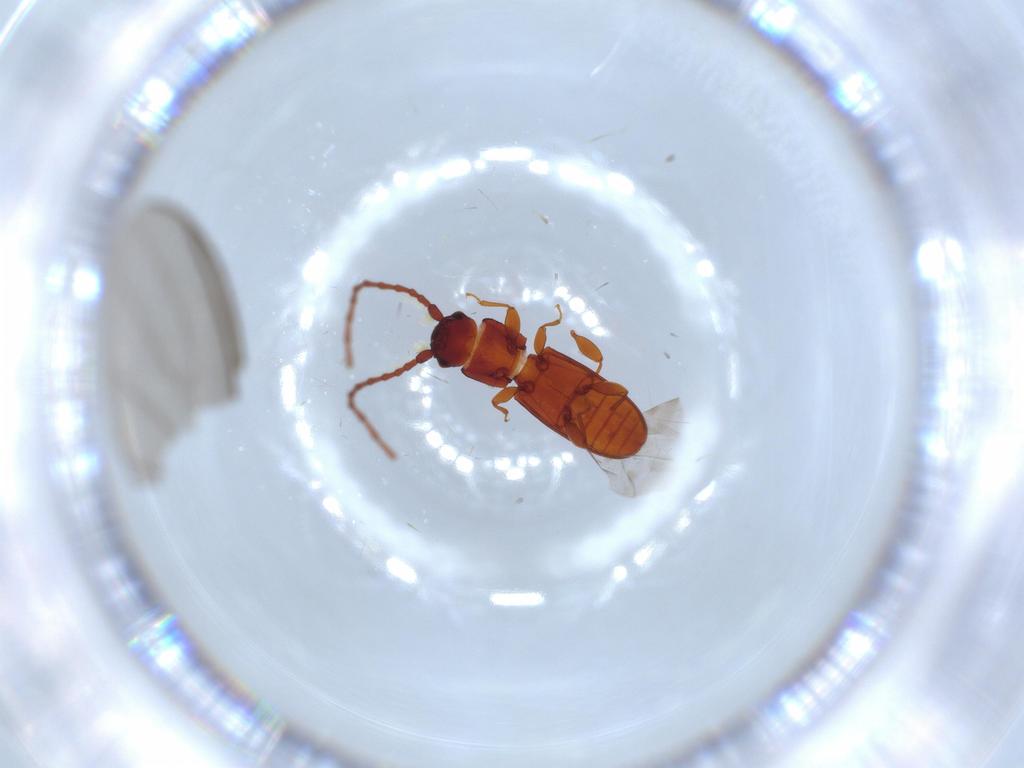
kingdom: Animalia
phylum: Arthropoda
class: Insecta
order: Coleoptera
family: Laemophloeidae
